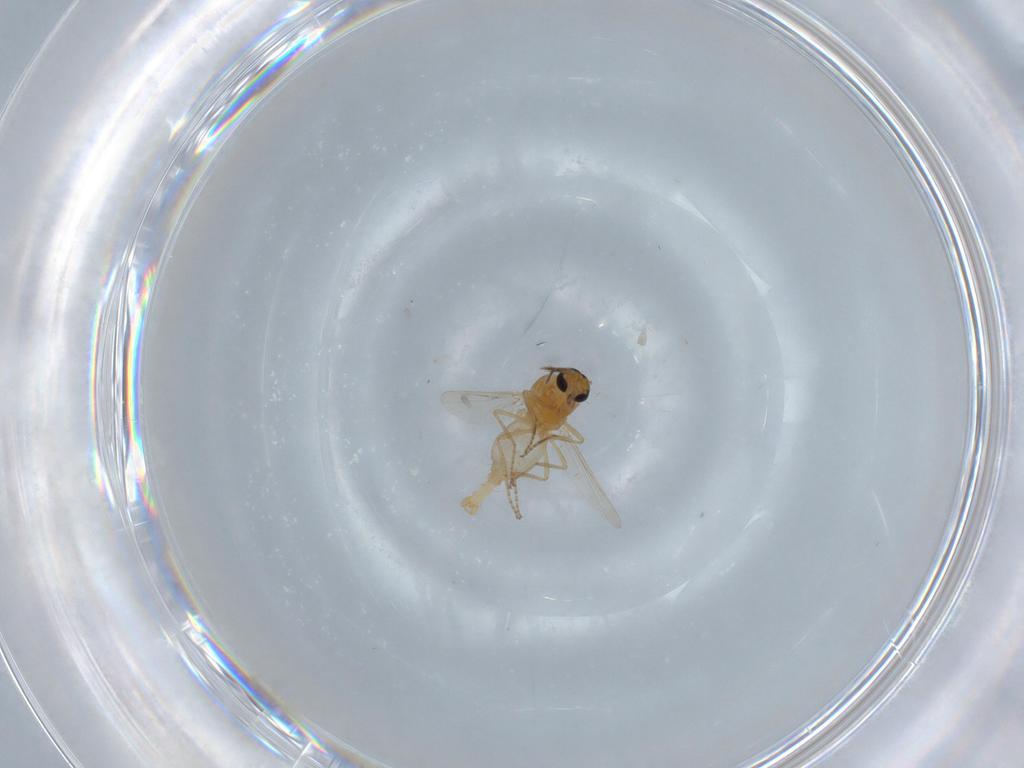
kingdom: Animalia
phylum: Arthropoda
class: Insecta
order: Diptera
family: Chironomidae
